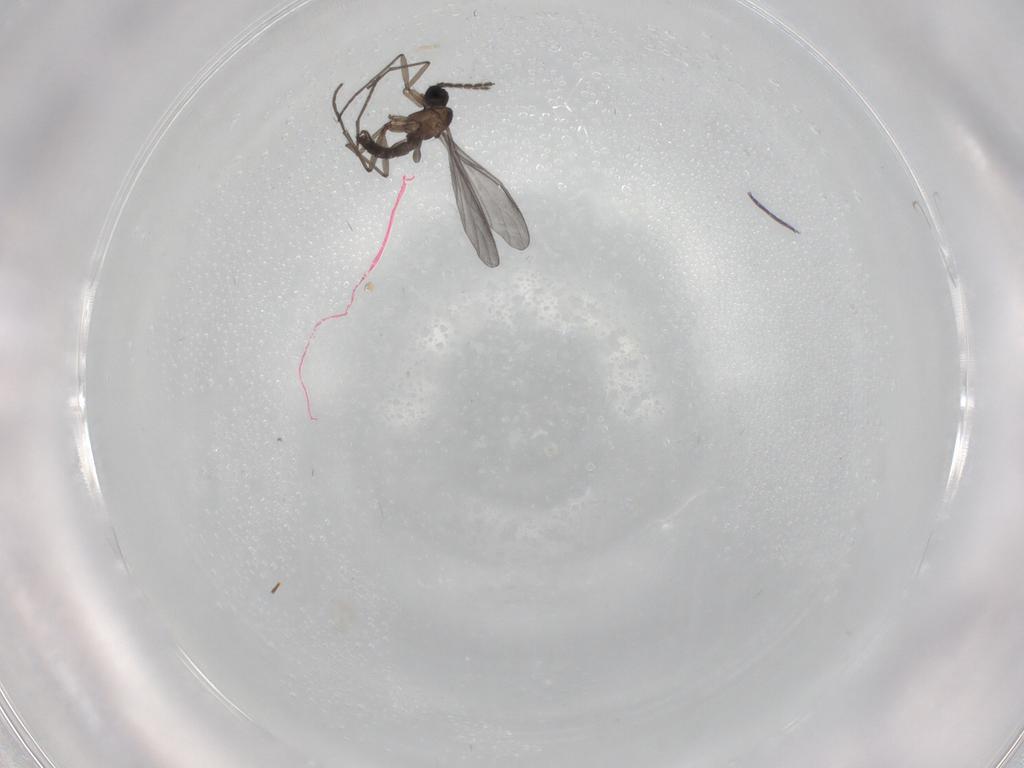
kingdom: Animalia
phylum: Arthropoda
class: Insecta
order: Diptera
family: Sciaridae
